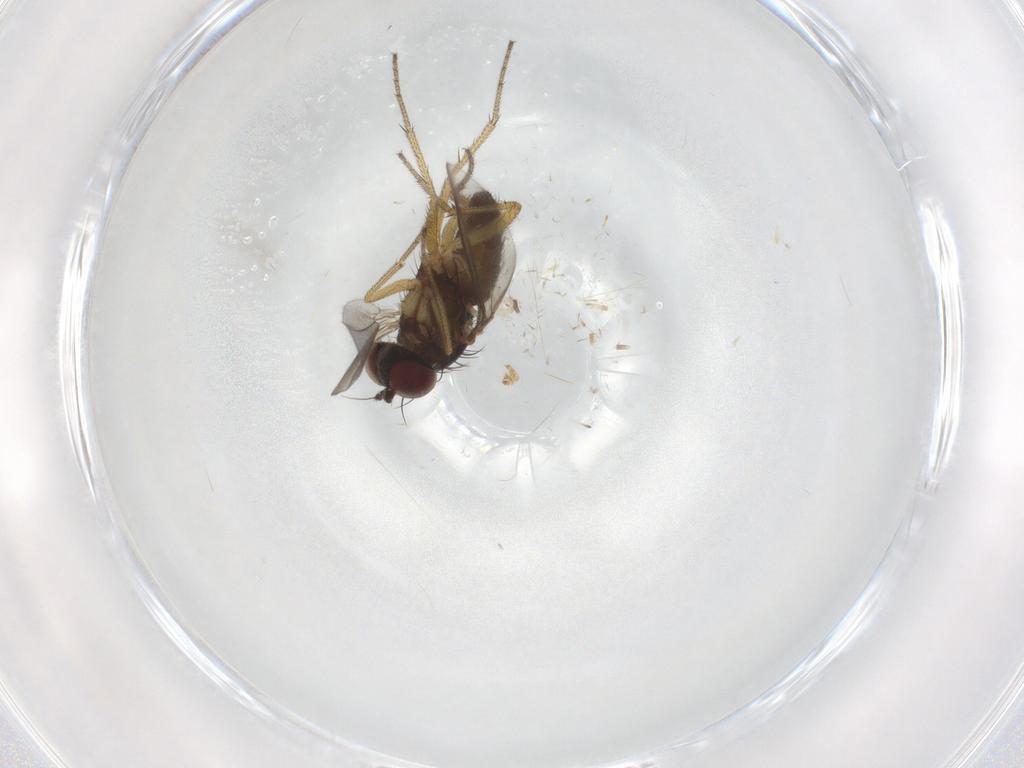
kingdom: Animalia
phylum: Arthropoda
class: Insecta
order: Diptera
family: Dolichopodidae
